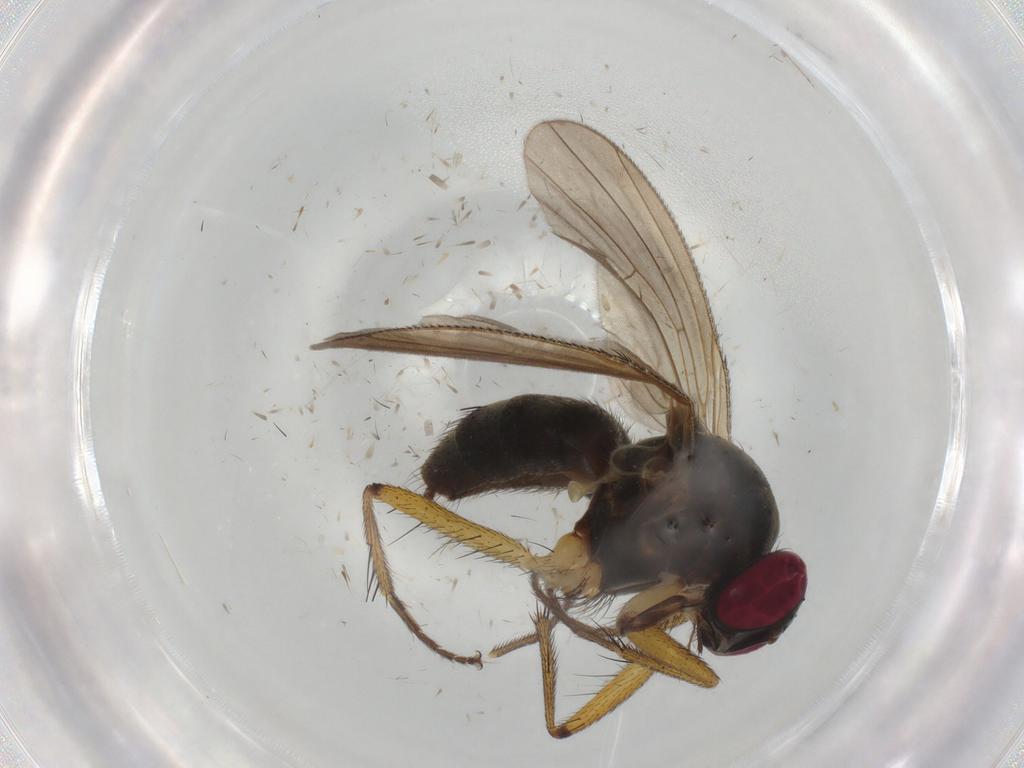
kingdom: Animalia
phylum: Arthropoda
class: Insecta
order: Diptera
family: Muscidae
